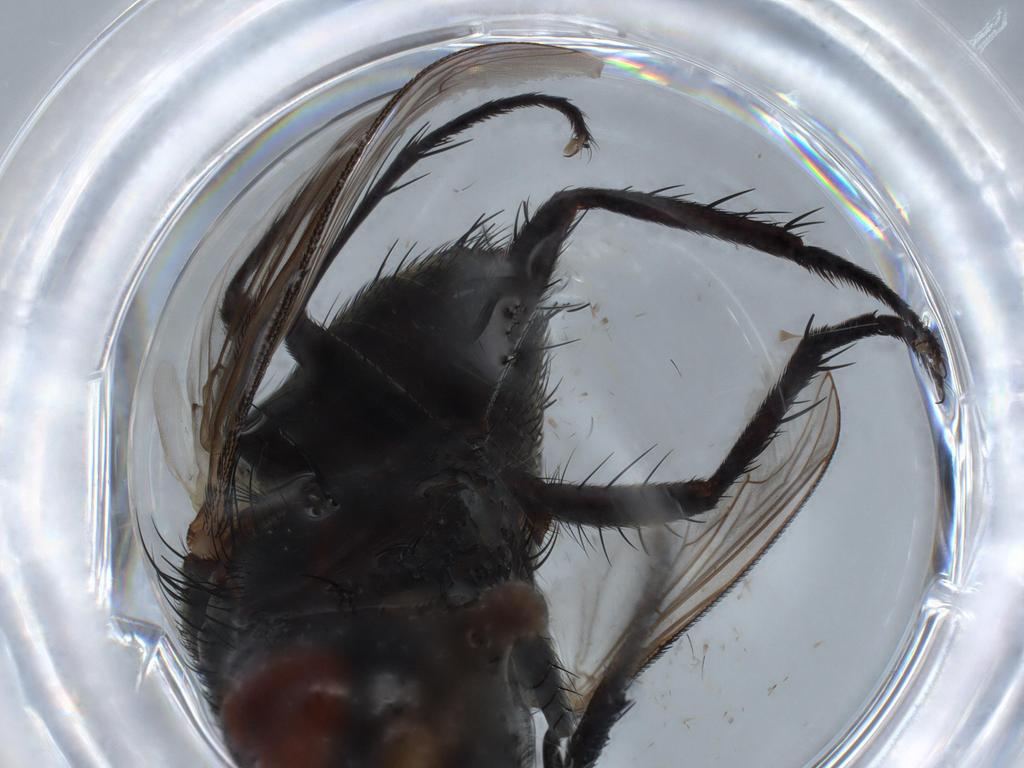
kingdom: Animalia
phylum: Arthropoda
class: Insecta
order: Diptera
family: Sarcophagidae
